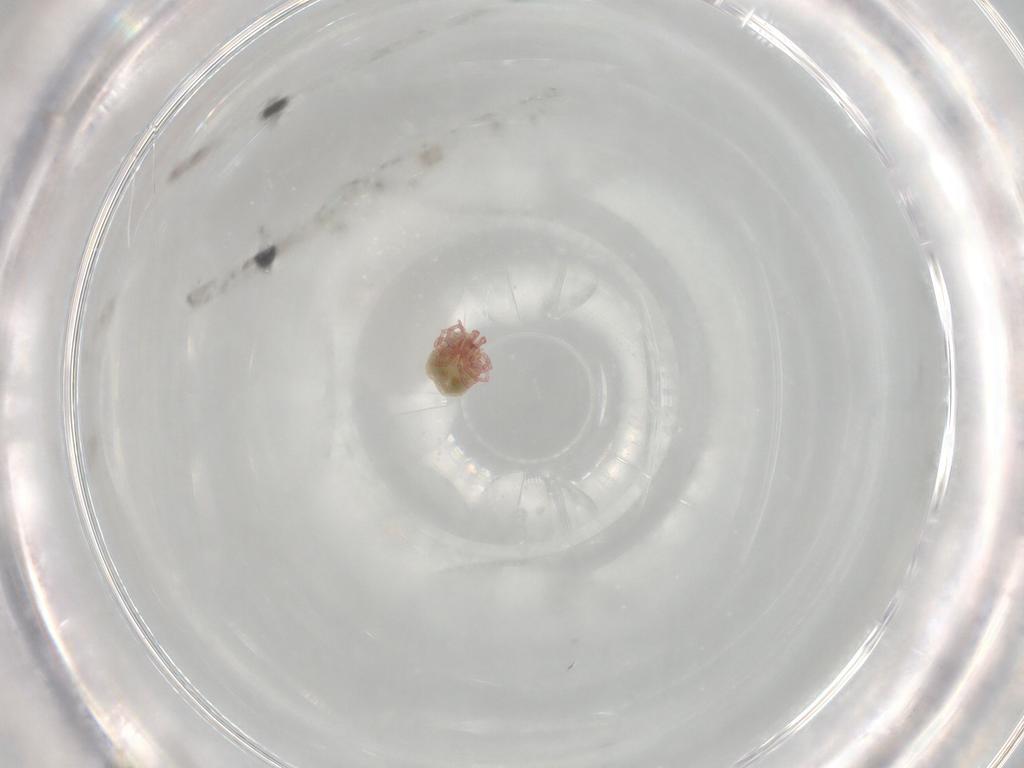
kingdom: Animalia
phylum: Arthropoda
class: Arachnida
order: Trombidiformes
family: Pionidae
